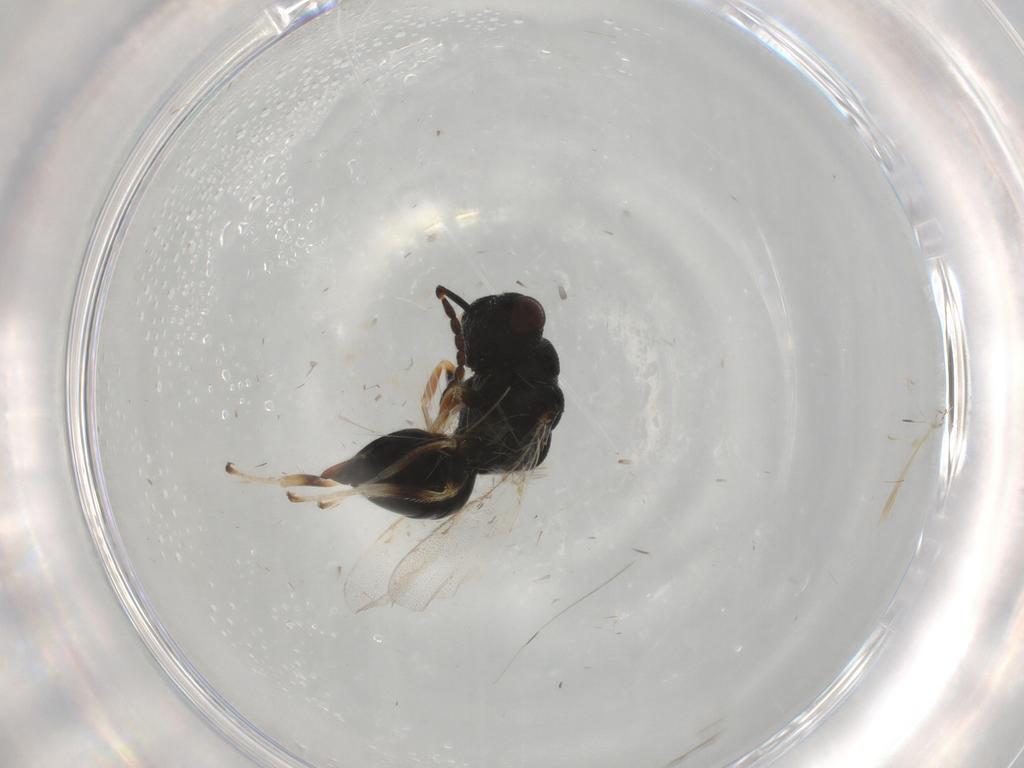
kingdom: Animalia
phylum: Arthropoda
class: Insecta
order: Hymenoptera
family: Eurytomidae
